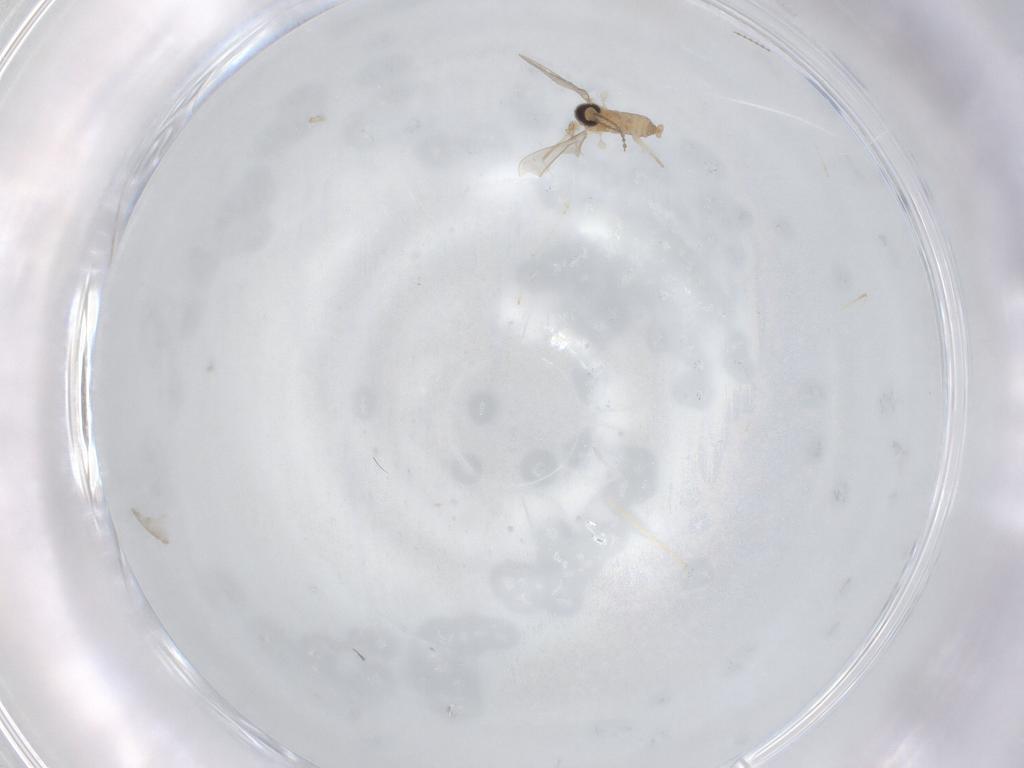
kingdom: Animalia
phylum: Arthropoda
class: Insecta
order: Diptera
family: Cecidomyiidae
